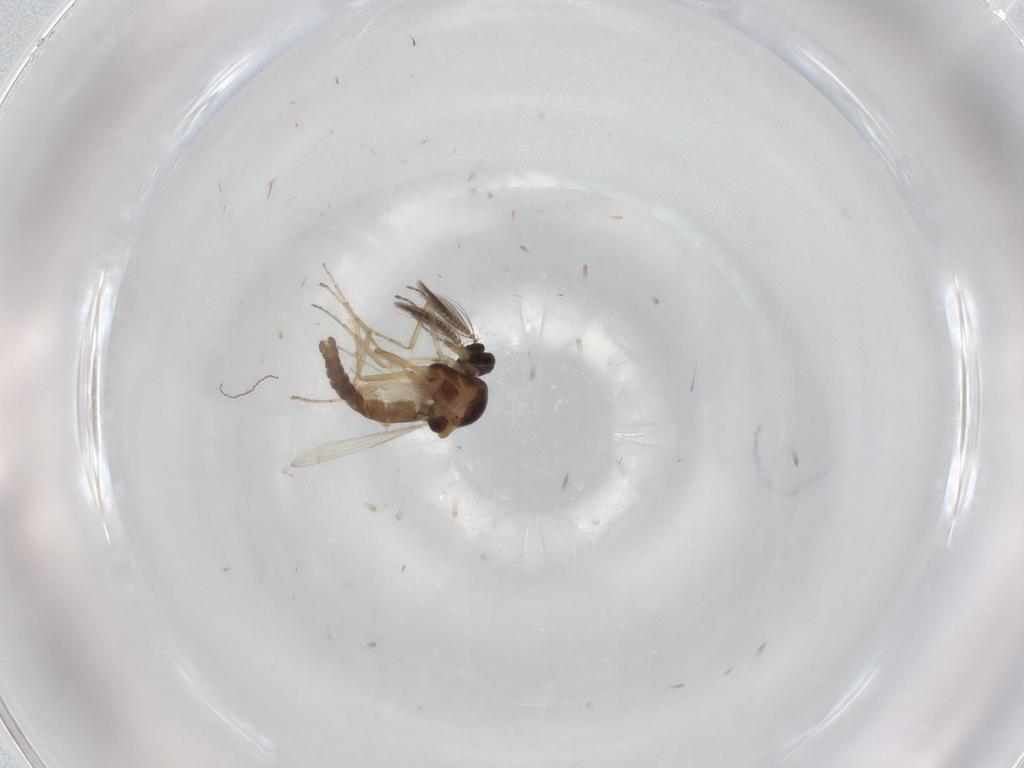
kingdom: Animalia
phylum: Arthropoda
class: Insecta
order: Diptera
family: Ceratopogonidae
